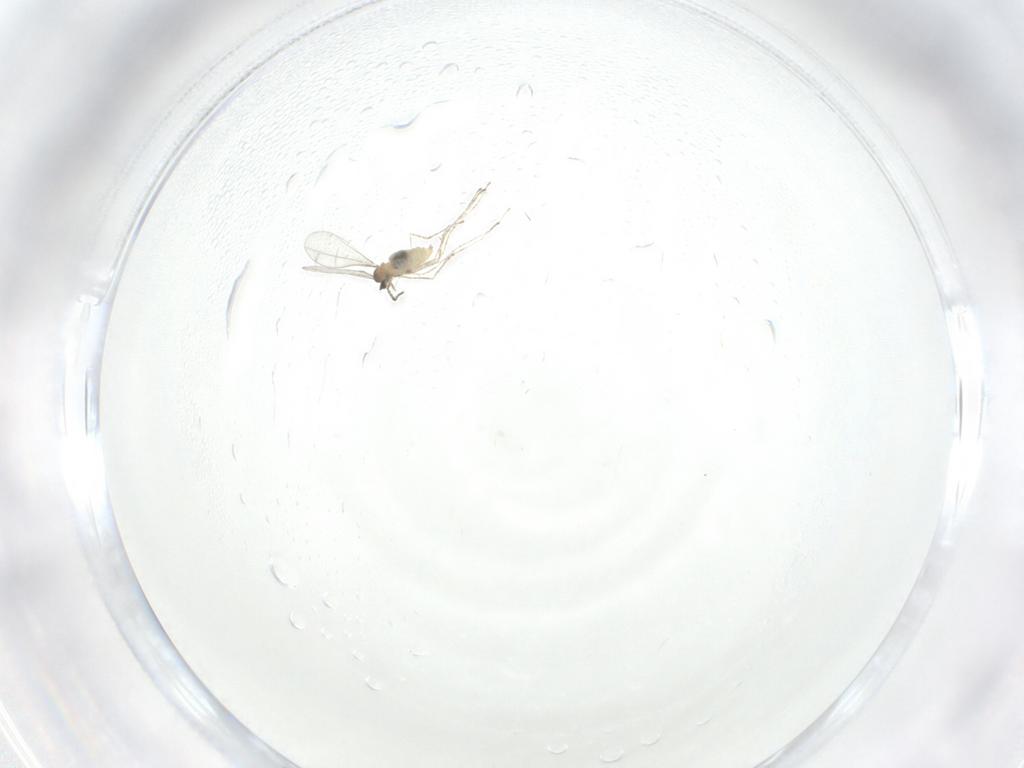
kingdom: Animalia
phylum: Arthropoda
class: Insecta
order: Diptera
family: Cecidomyiidae
